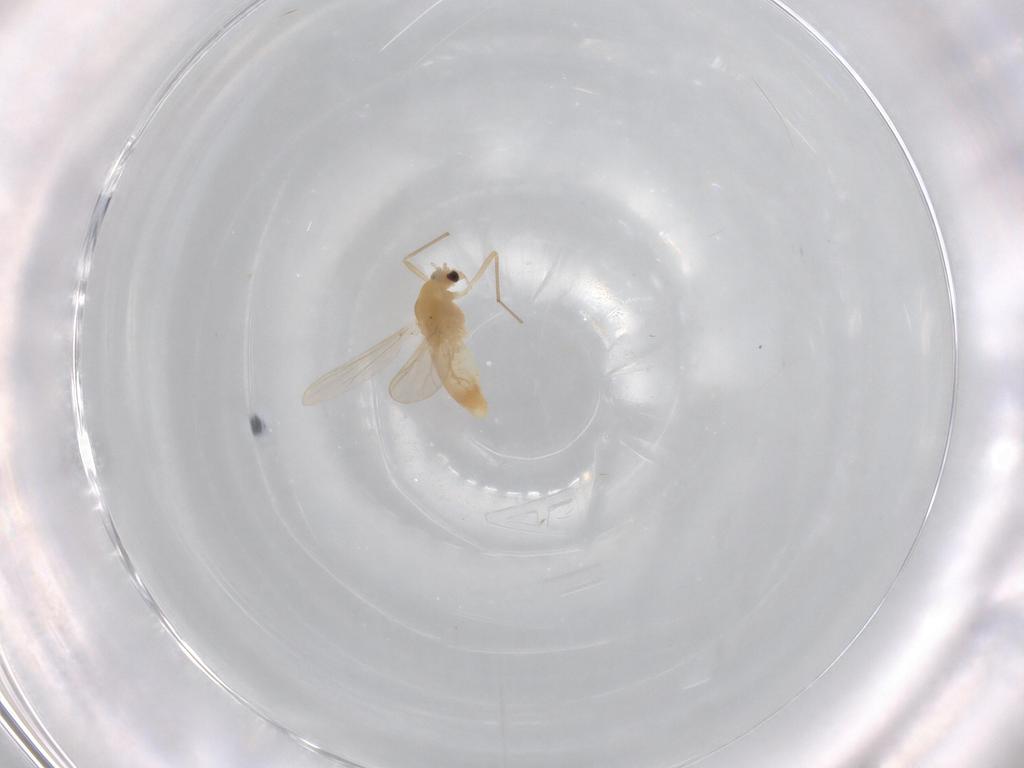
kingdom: Animalia
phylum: Arthropoda
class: Insecta
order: Diptera
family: Chironomidae
